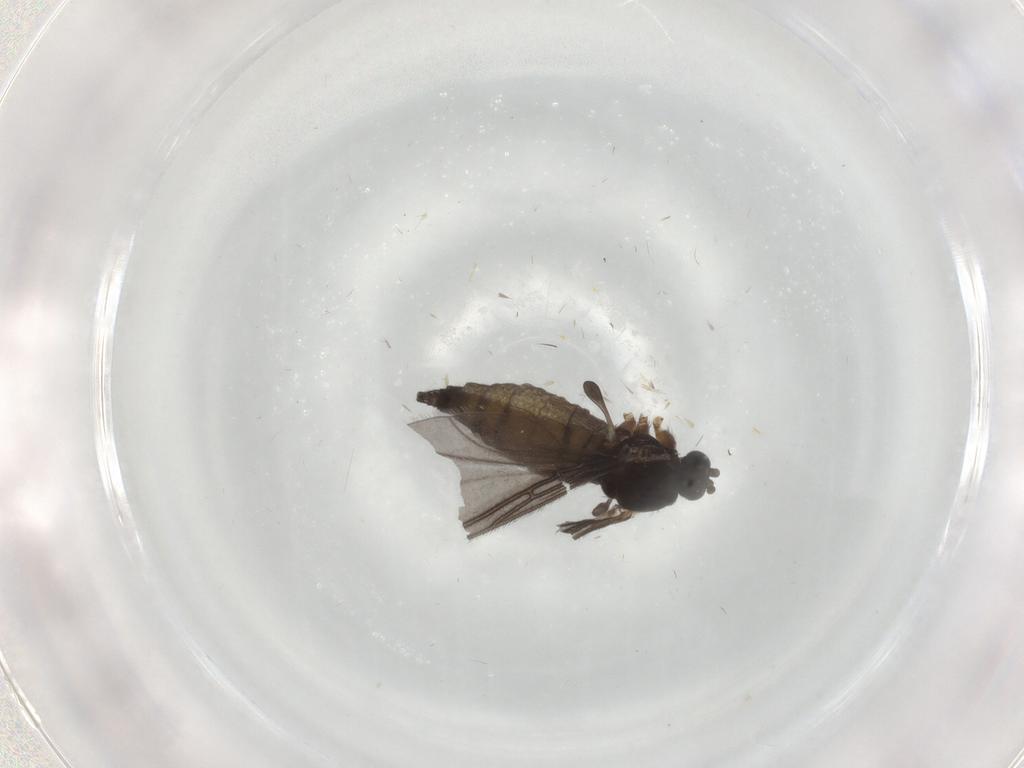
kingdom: Animalia
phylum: Arthropoda
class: Insecta
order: Diptera
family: Sciaridae
